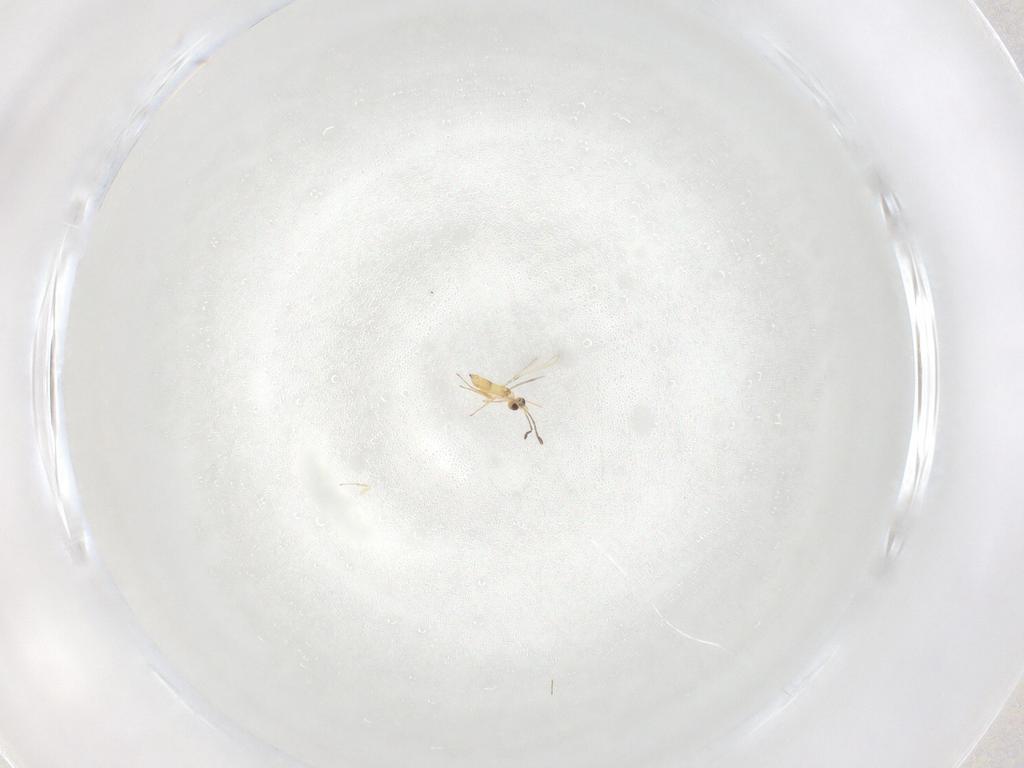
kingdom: Animalia
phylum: Arthropoda
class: Insecta
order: Hymenoptera
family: Mymaridae
